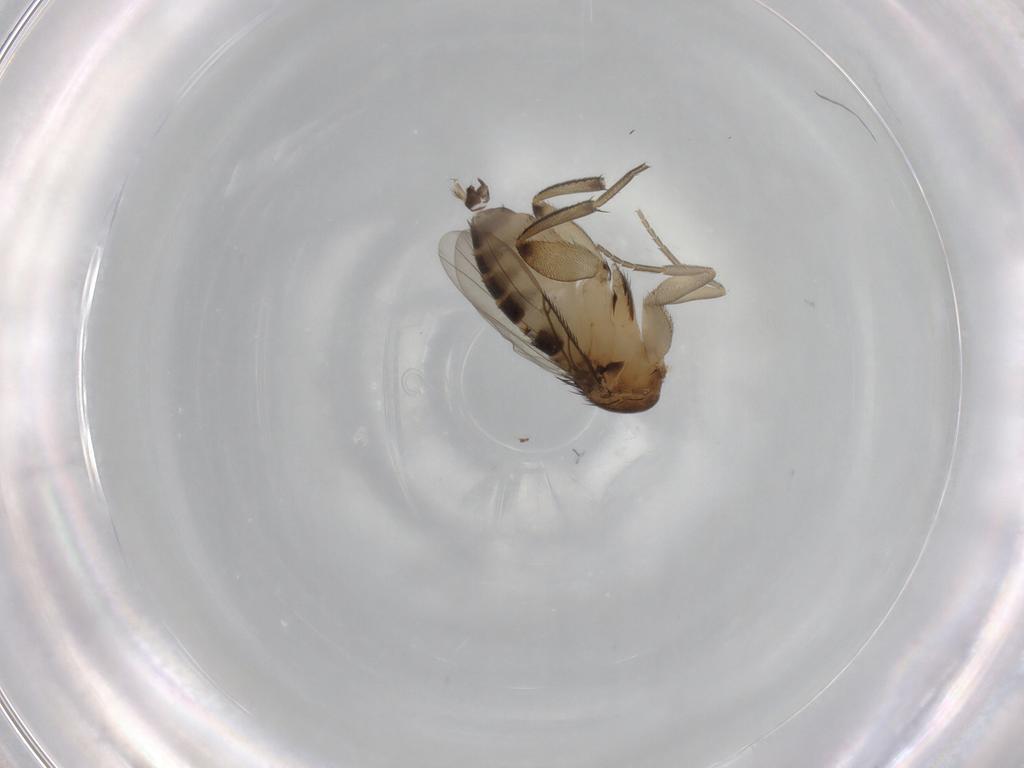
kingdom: Animalia
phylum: Arthropoda
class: Insecta
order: Diptera
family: Phoridae
